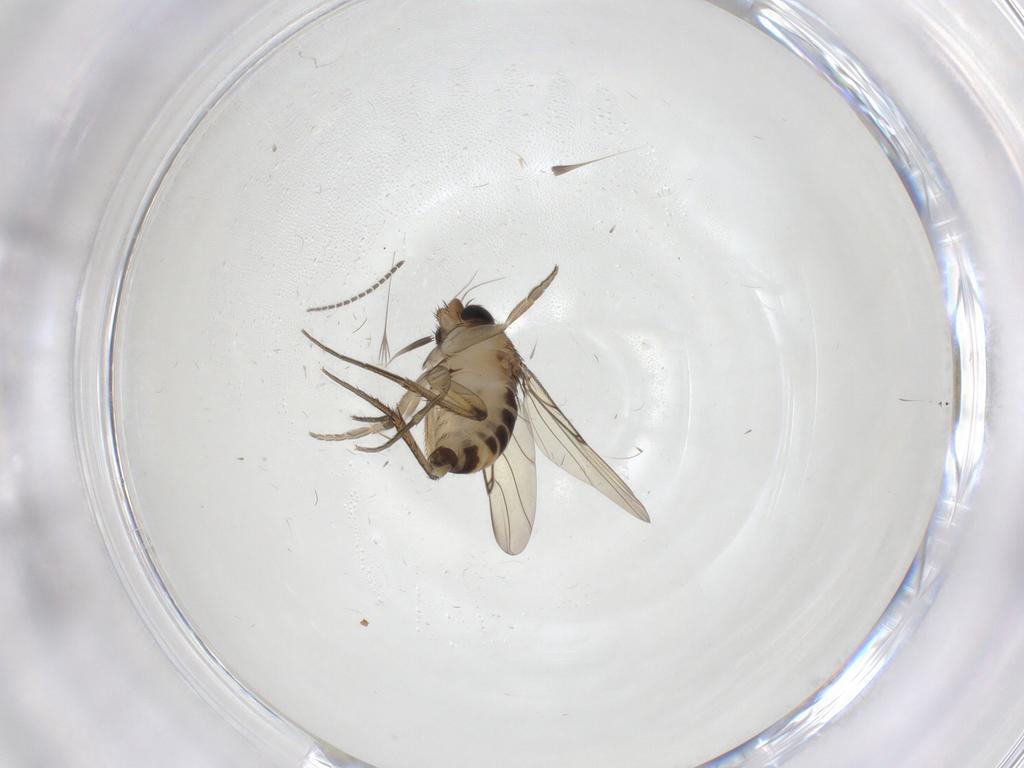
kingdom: Animalia
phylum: Arthropoda
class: Insecta
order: Diptera
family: Sciaridae
